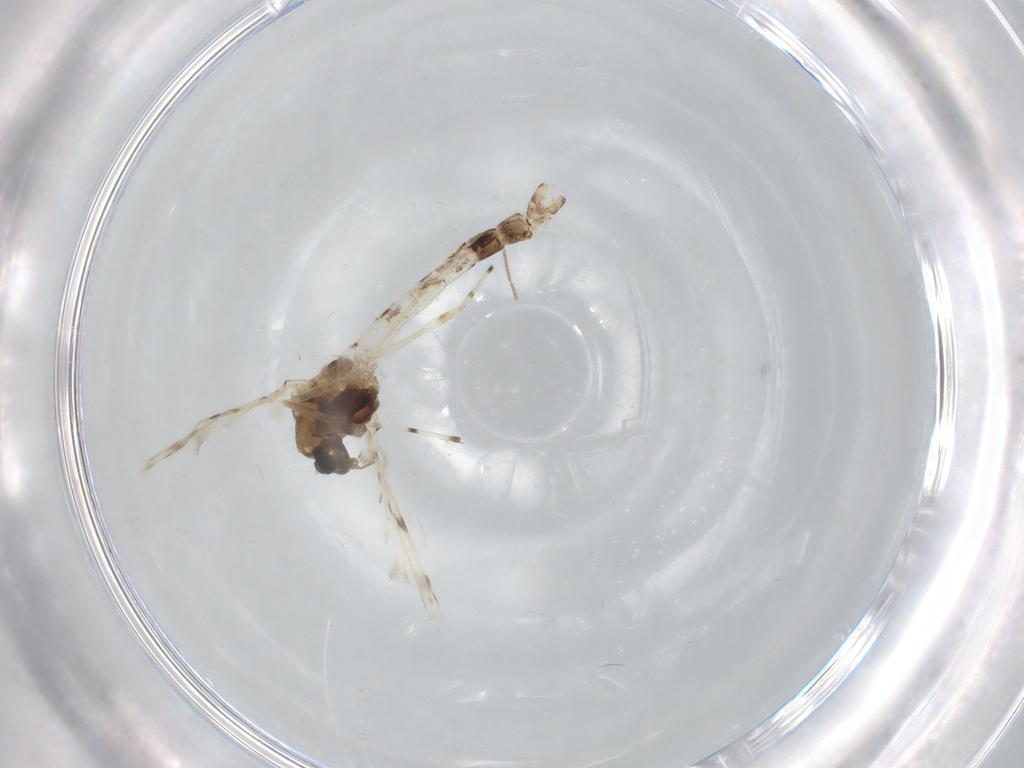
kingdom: Animalia
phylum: Arthropoda
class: Insecta
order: Diptera
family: Chironomidae
